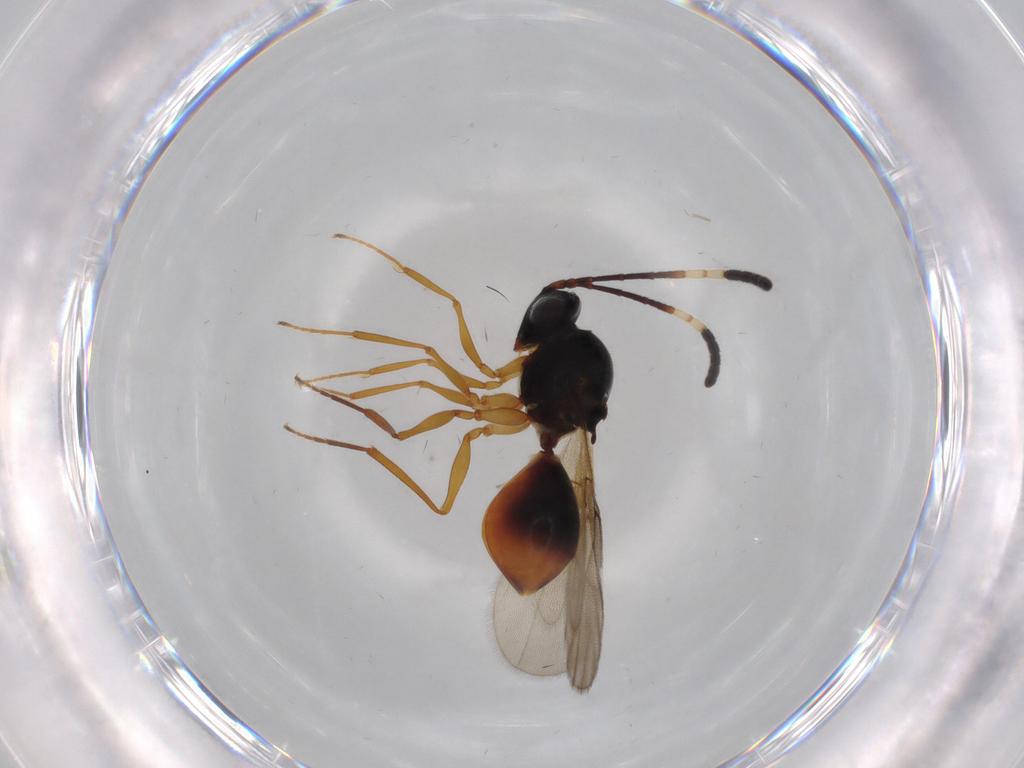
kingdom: Animalia
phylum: Arthropoda
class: Insecta
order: Hymenoptera
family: Figitidae
